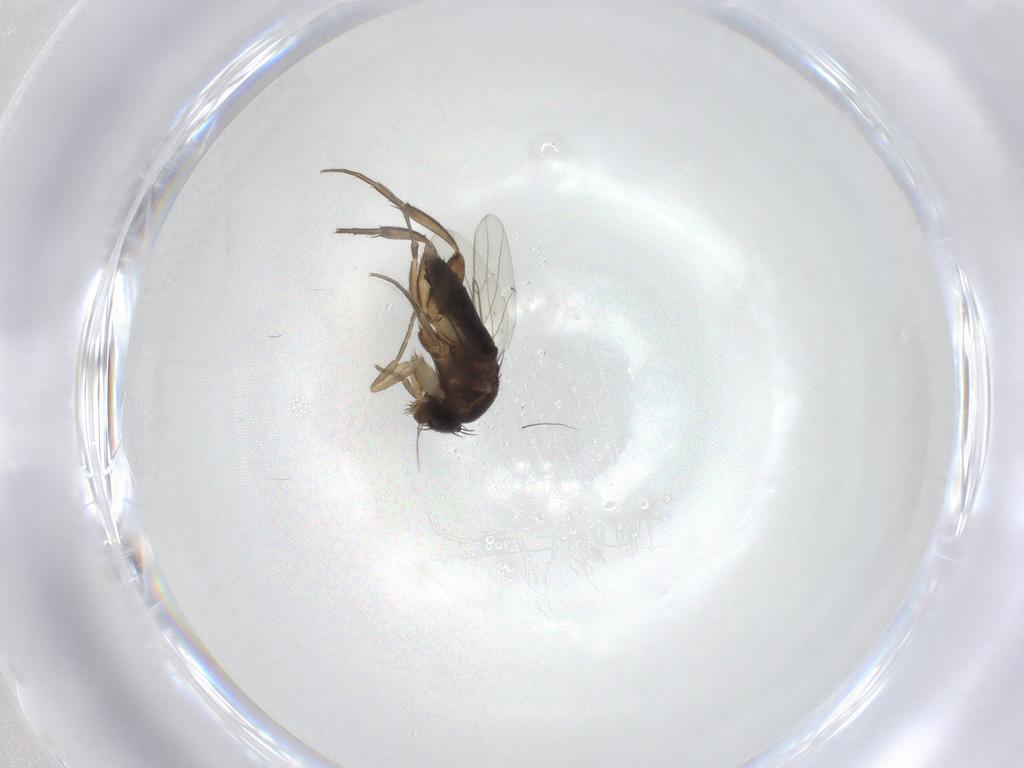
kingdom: Animalia
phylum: Arthropoda
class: Insecta
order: Diptera
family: Phoridae
